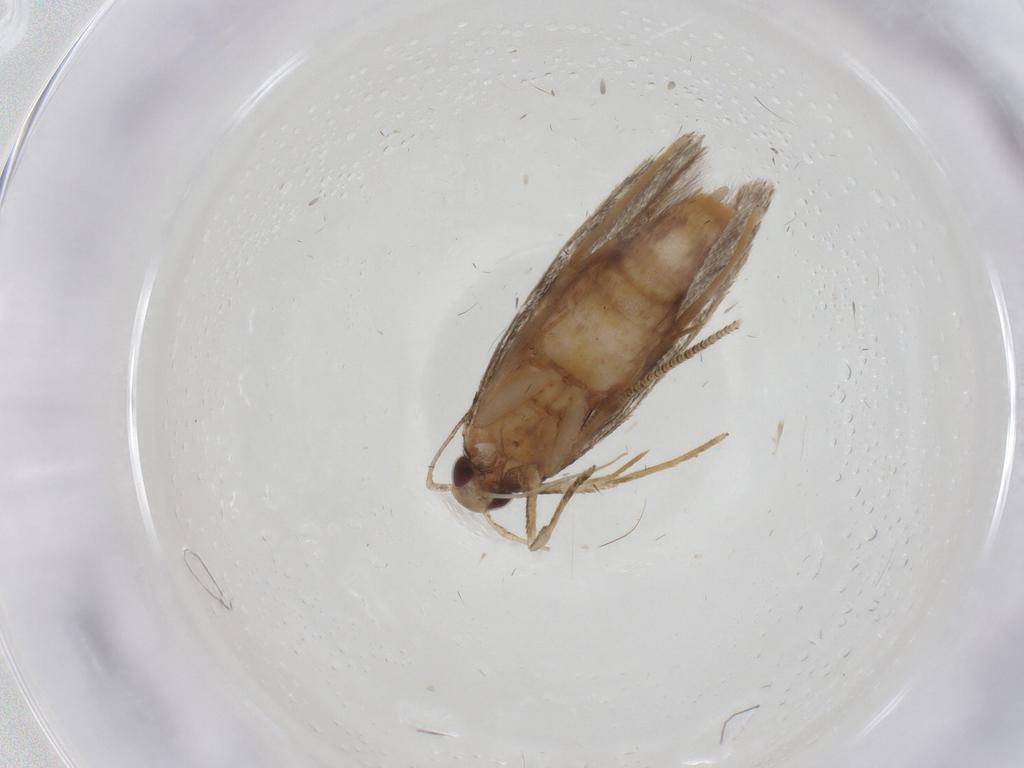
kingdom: Animalia
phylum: Arthropoda
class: Insecta
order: Lepidoptera
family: Cosmopterigidae
